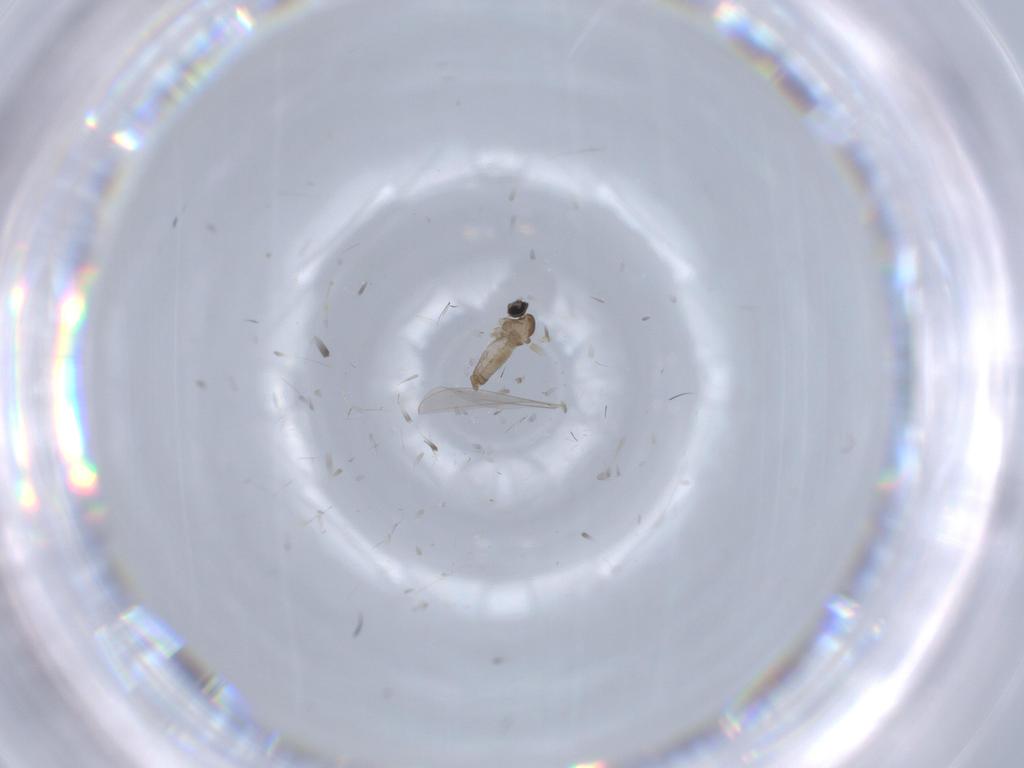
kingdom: Animalia
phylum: Arthropoda
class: Insecta
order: Diptera
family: Cecidomyiidae
